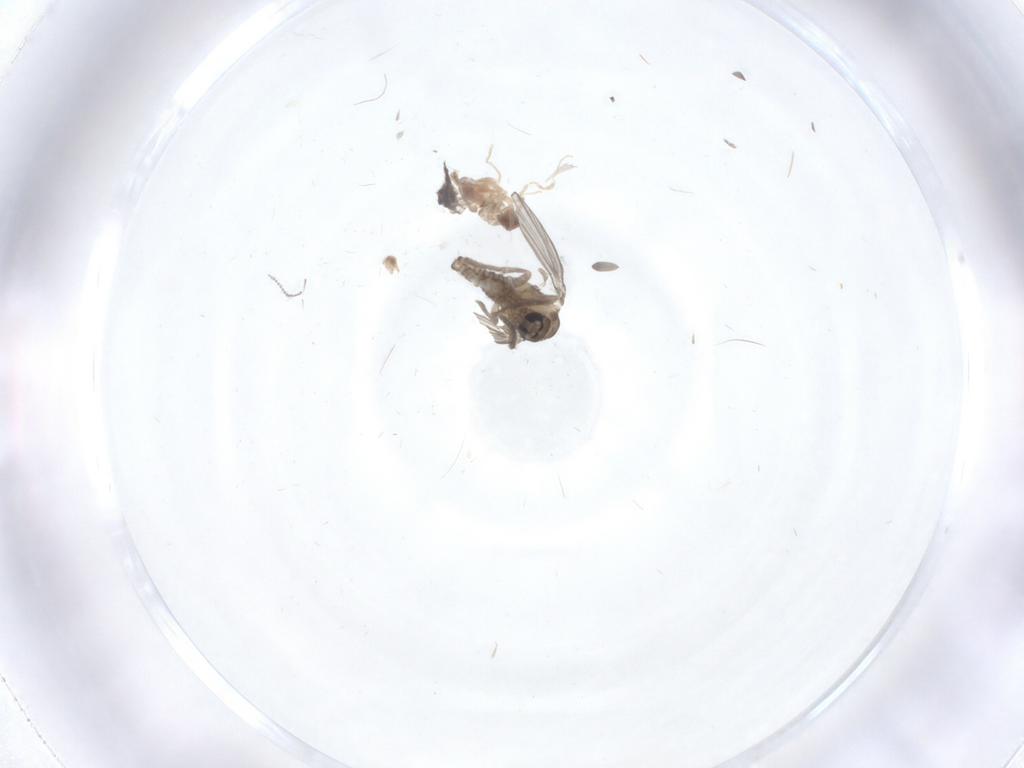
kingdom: Animalia
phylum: Arthropoda
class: Insecta
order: Diptera
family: Psychodidae
